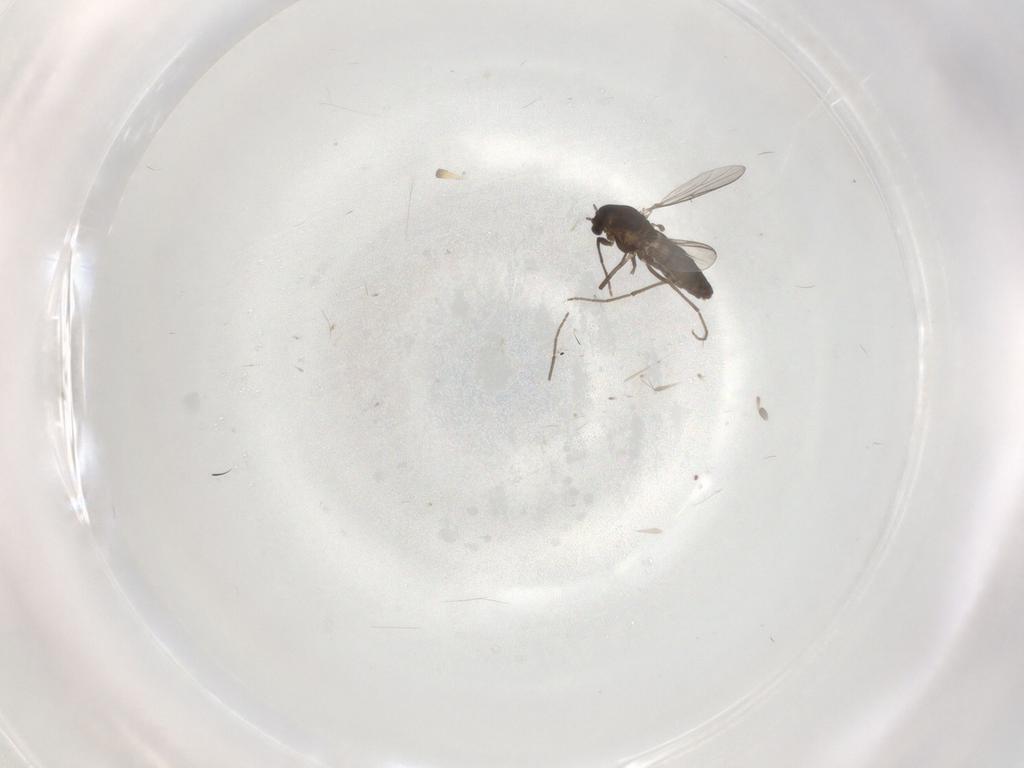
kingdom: Animalia
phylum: Arthropoda
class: Insecta
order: Diptera
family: Chironomidae
